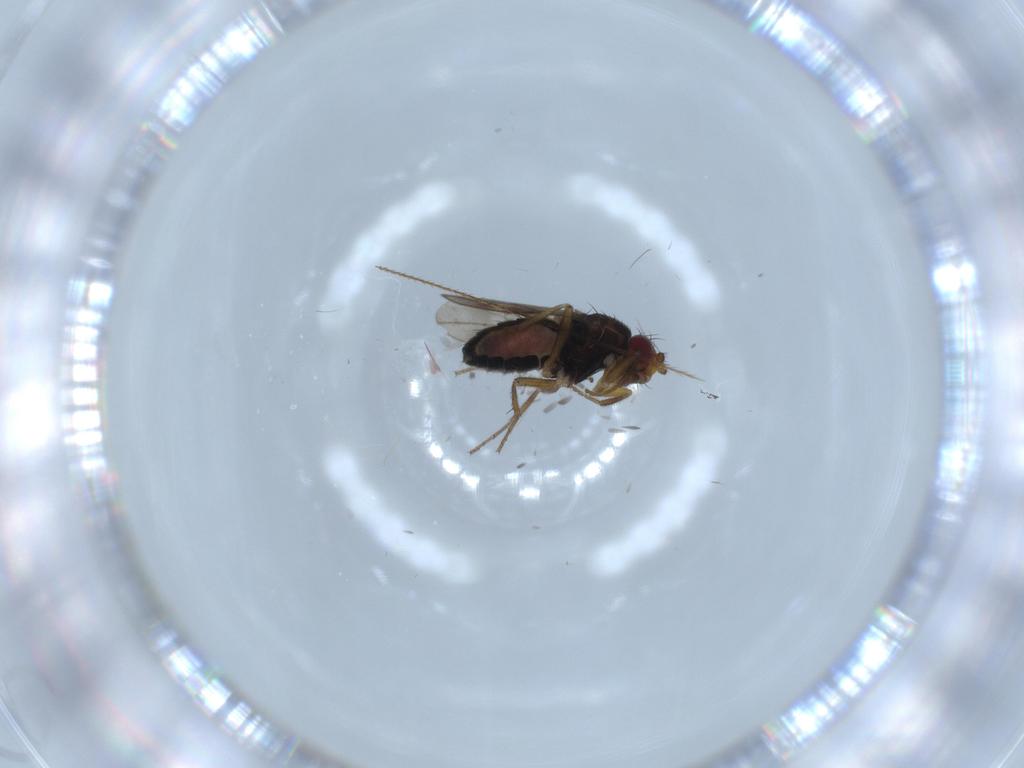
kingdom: Animalia
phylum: Arthropoda
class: Insecta
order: Diptera
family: Sphaeroceridae
